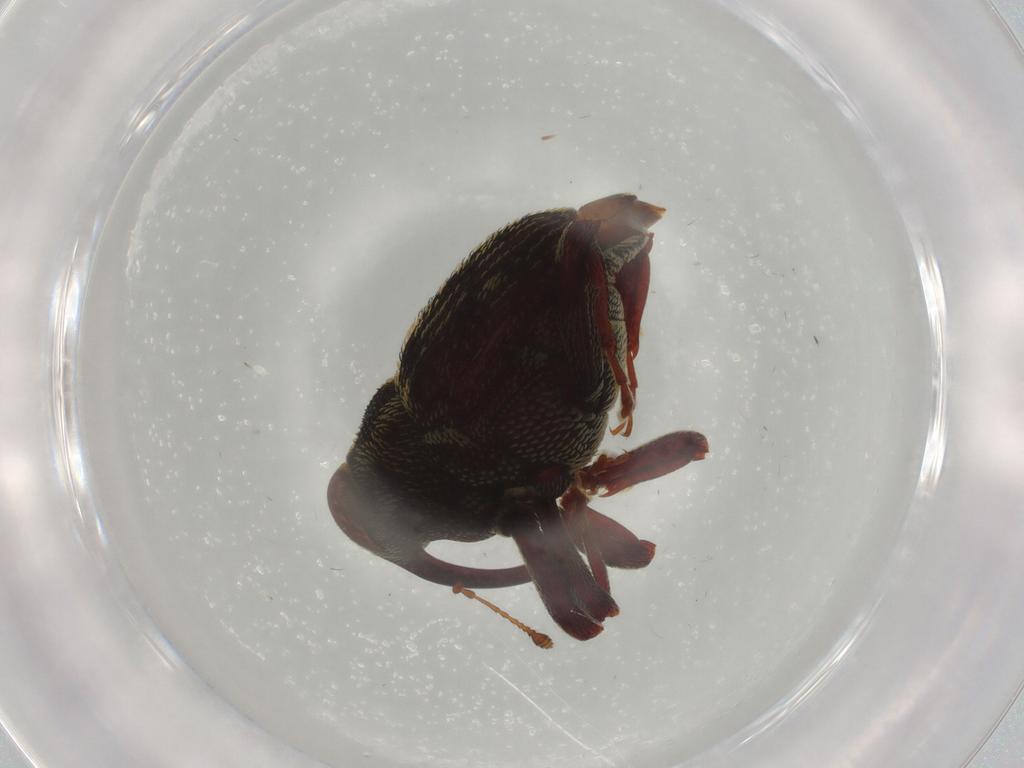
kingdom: Animalia
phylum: Arthropoda
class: Insecta
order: Coleoptera
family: Curculionidae
